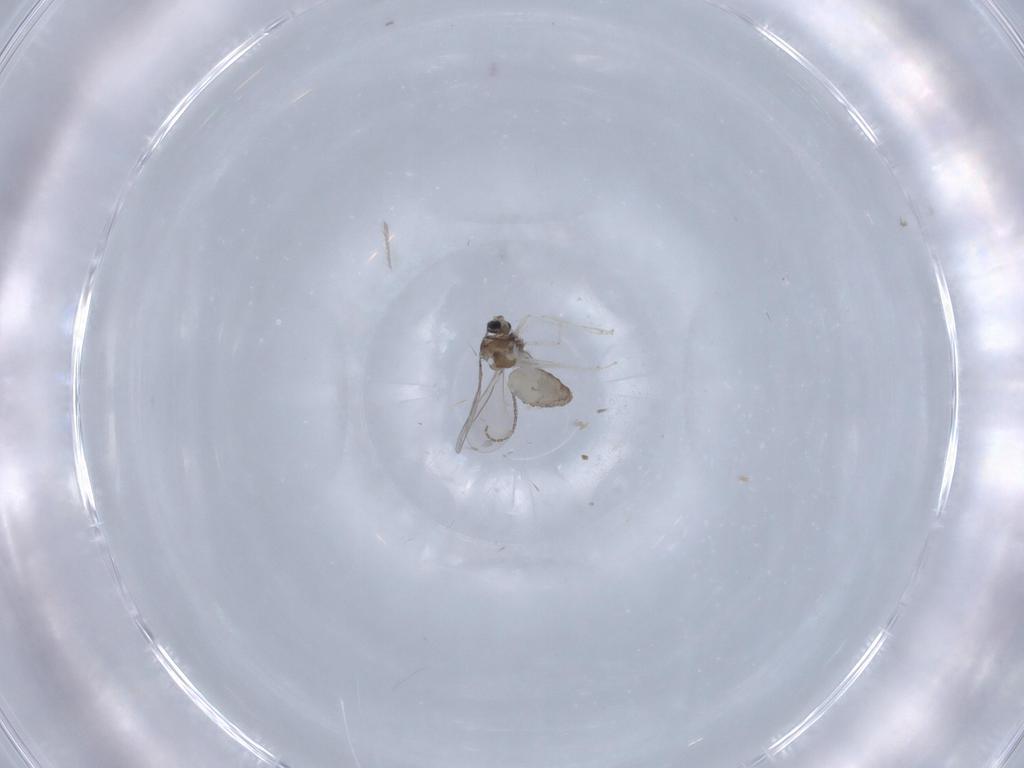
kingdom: Animalia
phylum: Arthropoda
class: Insecta
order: Diptera
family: Cecidomyiidae
